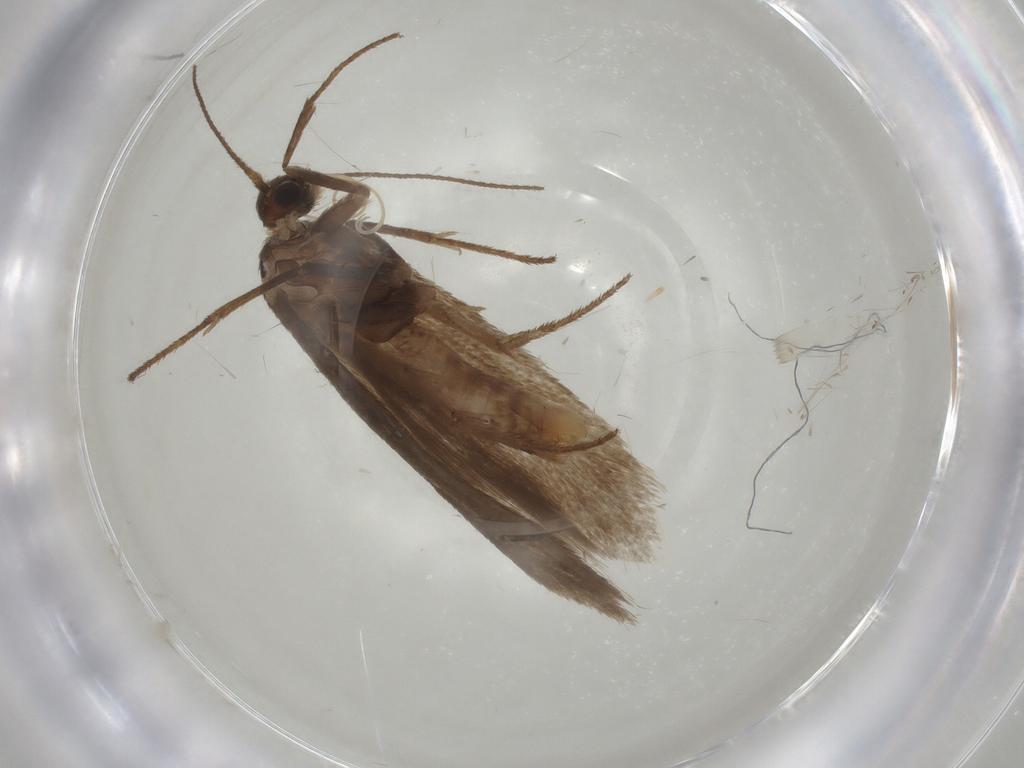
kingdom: Animalia
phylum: Arthropoda
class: Insecta
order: Lepidoptera
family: Limacodidae
